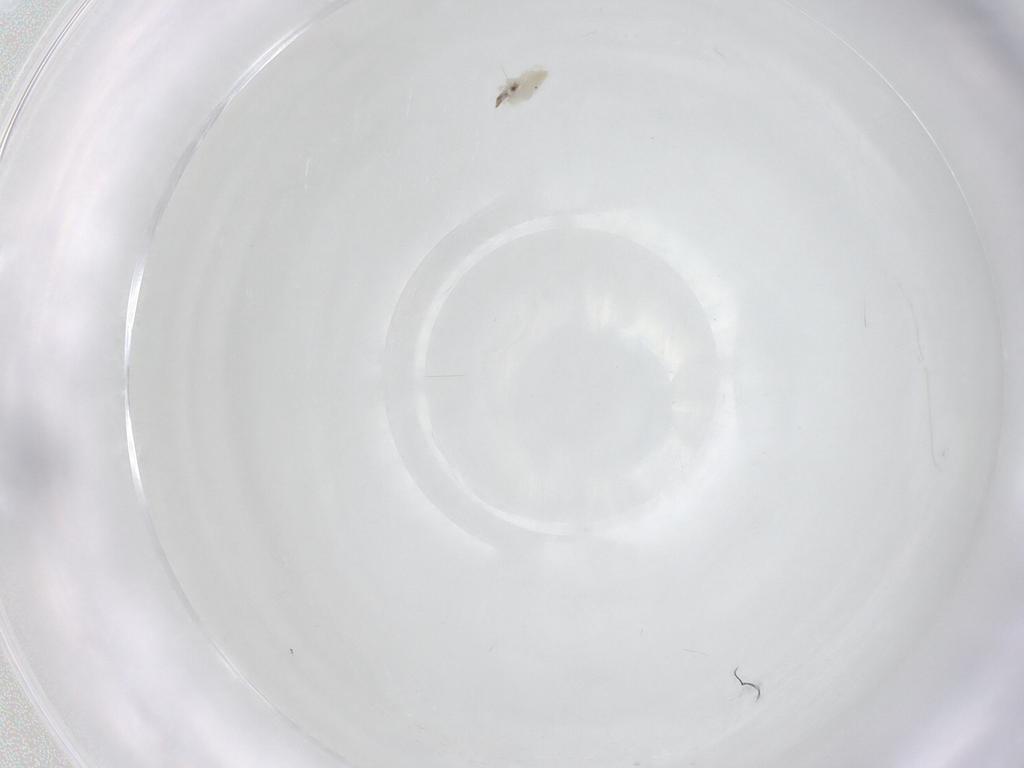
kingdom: Animalia
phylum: Arthropoda
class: Insecta
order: Diptera
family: Sciaridae
